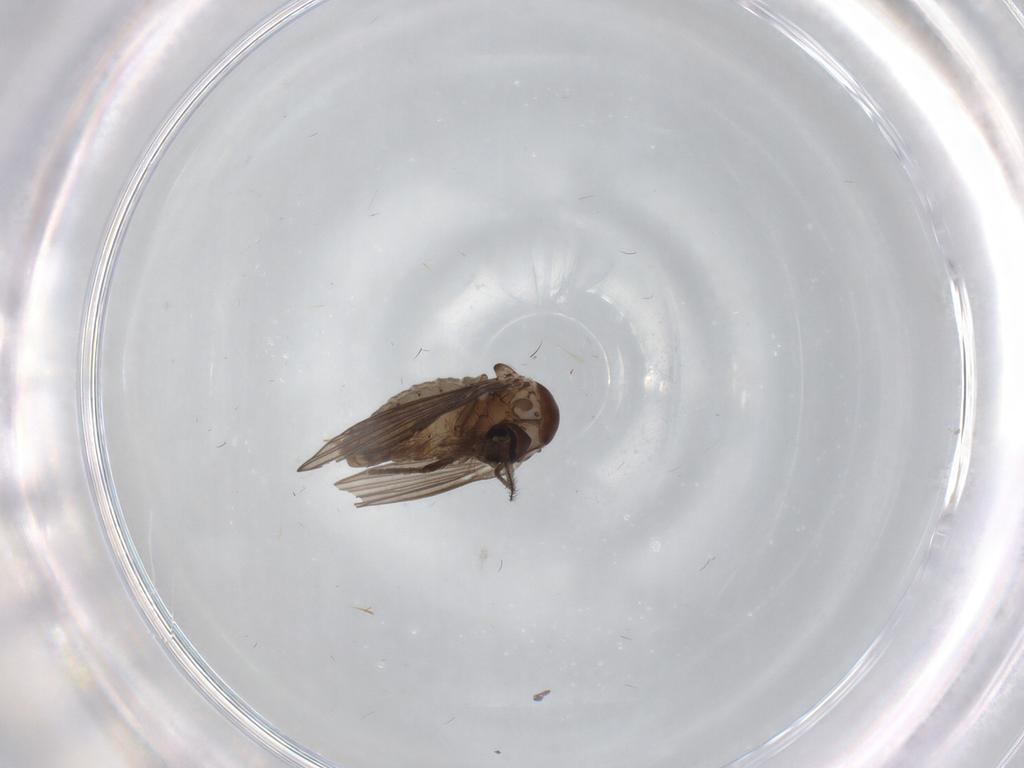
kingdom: Animalia
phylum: Arthropoda
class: Insecta
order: Diptera
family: Psychodidae
